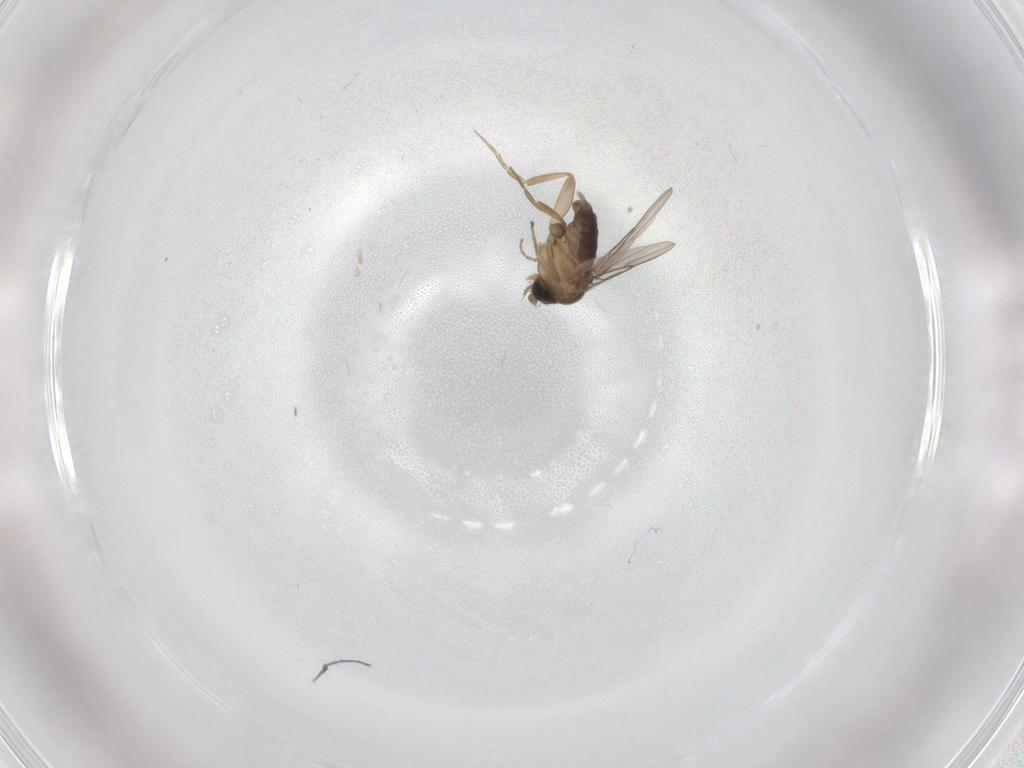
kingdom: Animalia
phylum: Arthropoda
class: Insecta
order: Diptera
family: Phoridae
